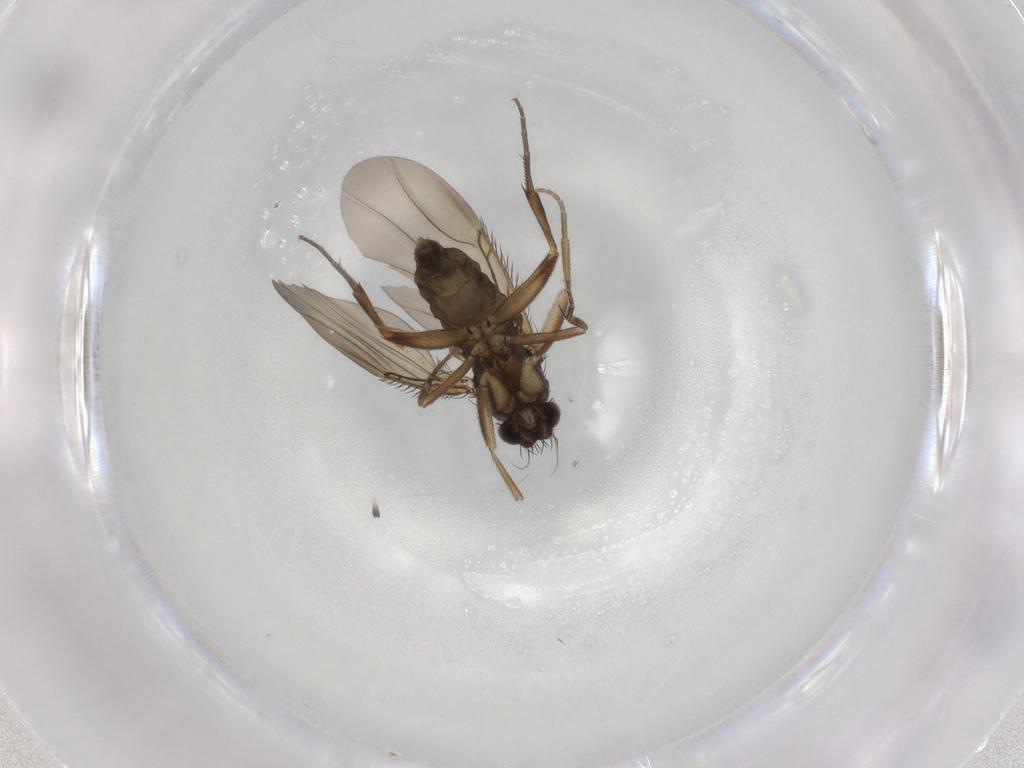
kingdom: Animalia
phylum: Arthropoda
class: Insecta
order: Diptera
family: Phoridae
